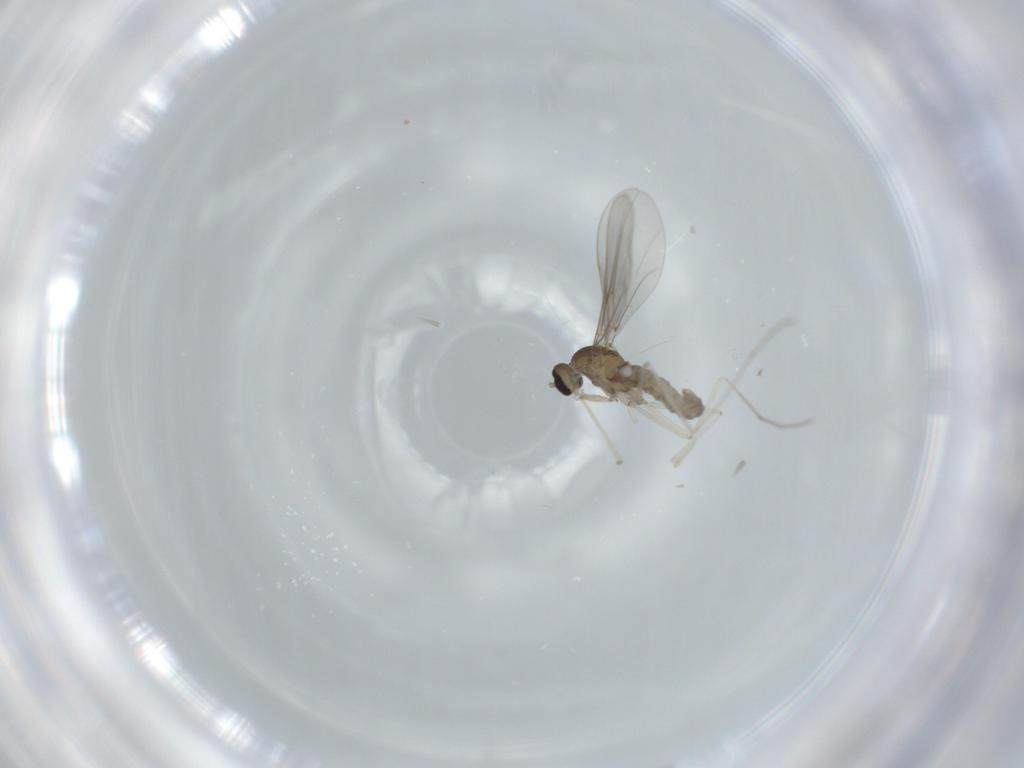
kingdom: Animalia
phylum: Arthropoda
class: Insecta
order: Diptera
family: Cecidomyiidae
